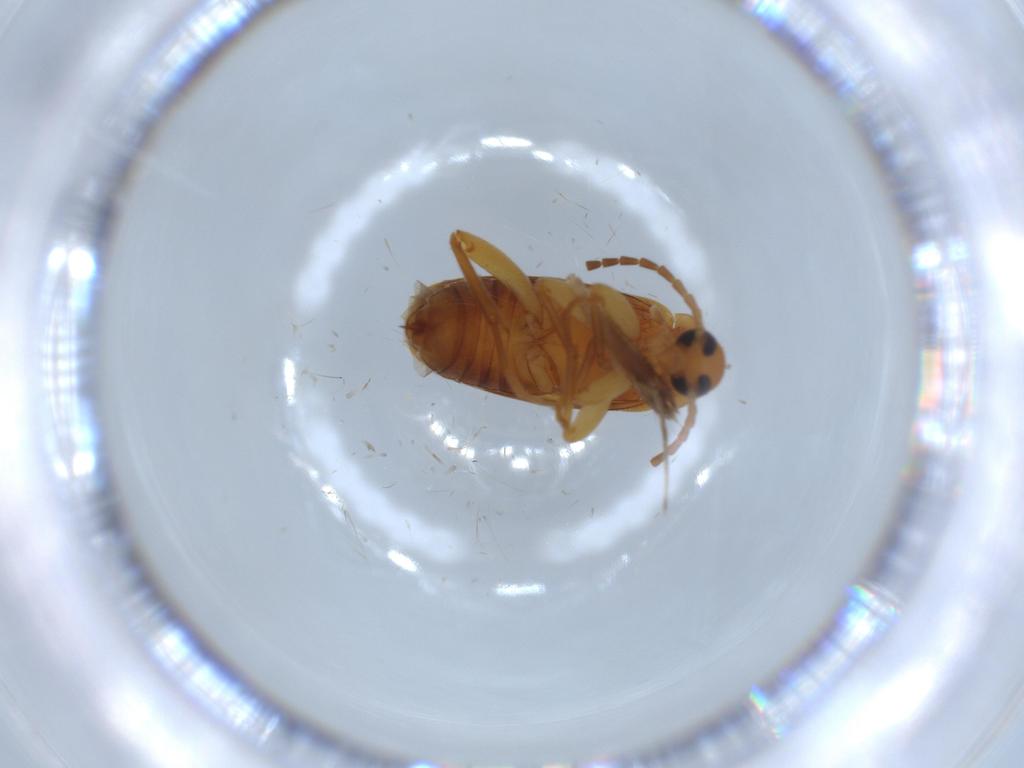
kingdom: Animalia
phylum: Arthropoda
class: Insecta
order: Coleoptera
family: Scraptiidae
